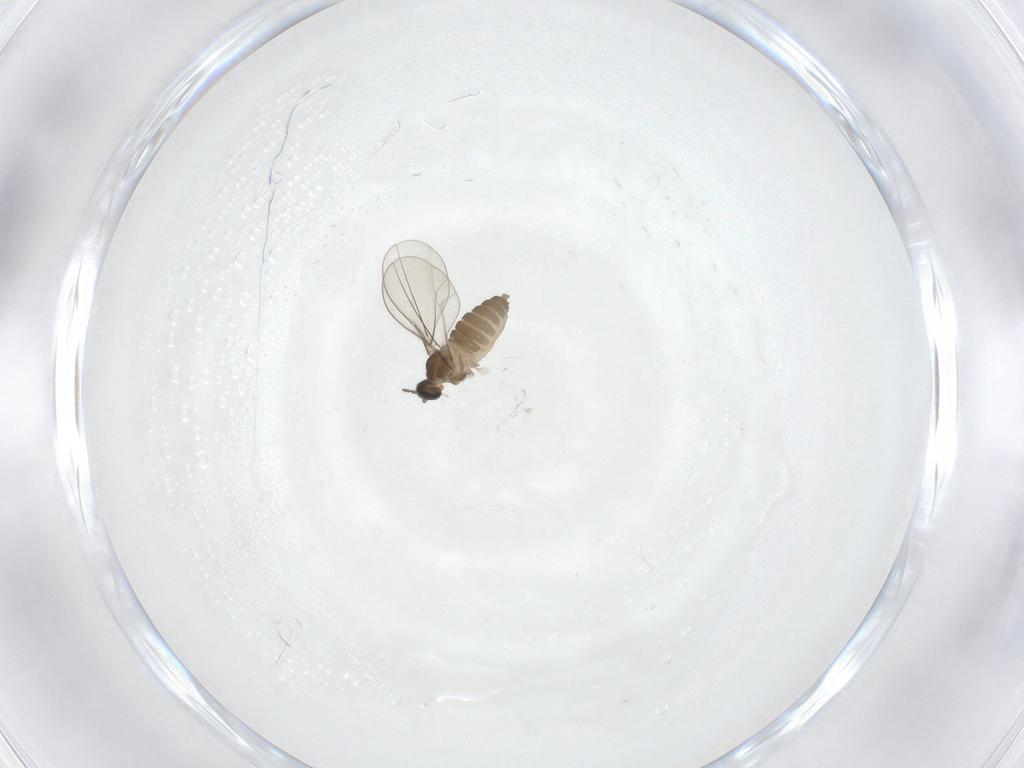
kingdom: Animalia
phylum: Arthropoda
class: Insecta
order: Diptera
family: Cecidomyiidae
